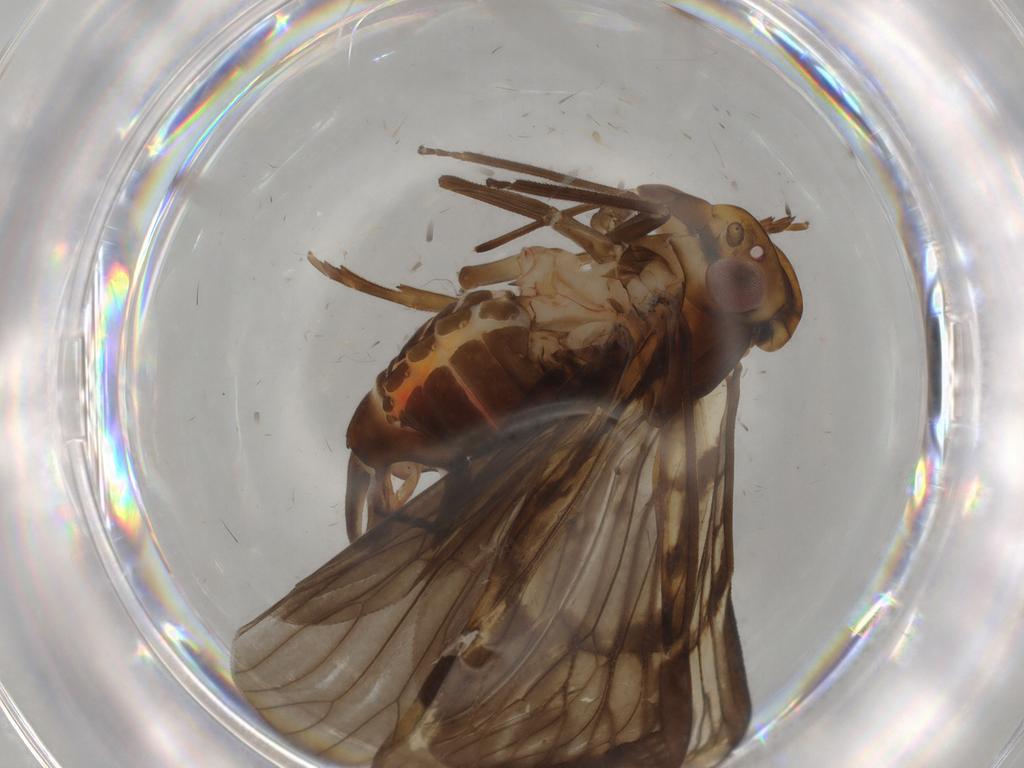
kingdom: Animalia
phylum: Arthropoda
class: Insecta
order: Hemiptera
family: Cixiidae
